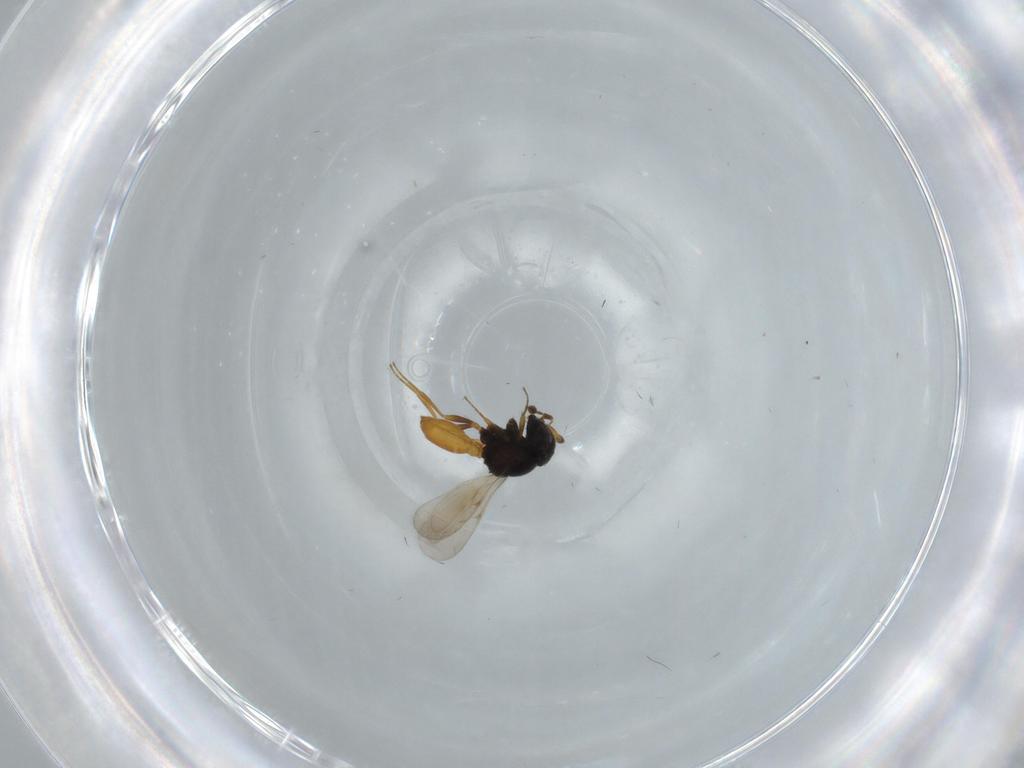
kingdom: Animalia
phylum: Arthropoda
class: Insecta
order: Hymenoptera
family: Scelionidae
